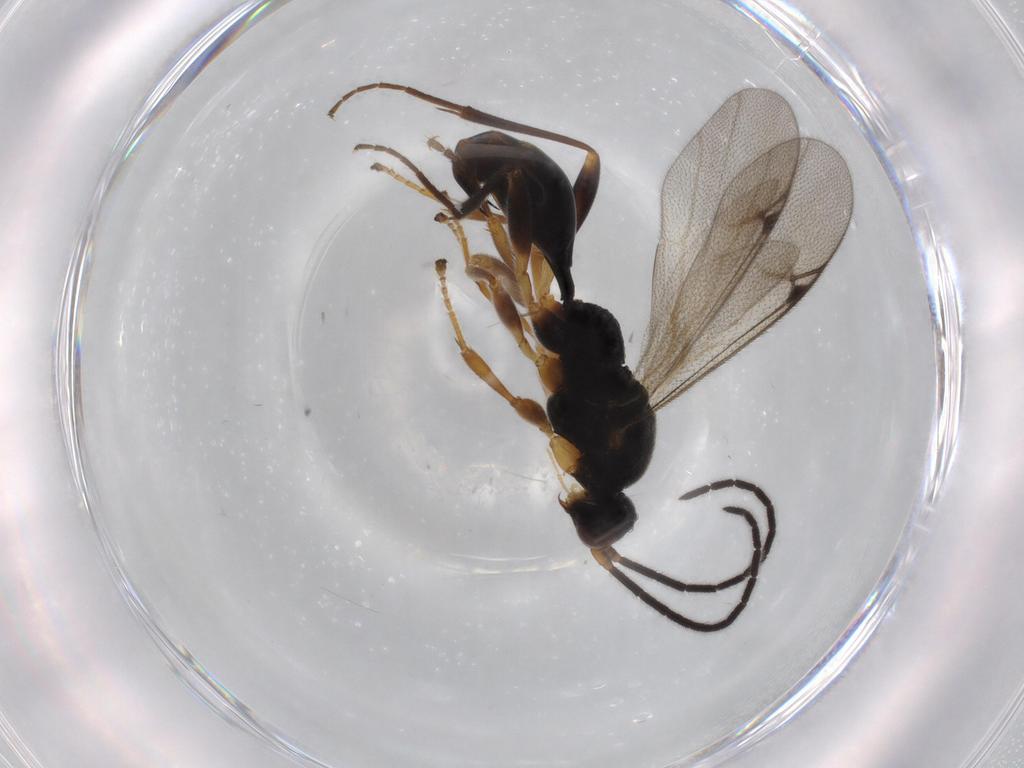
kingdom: Animalia
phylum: Arthropoda
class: Insecta
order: Hymenoptera
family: Formicidae
